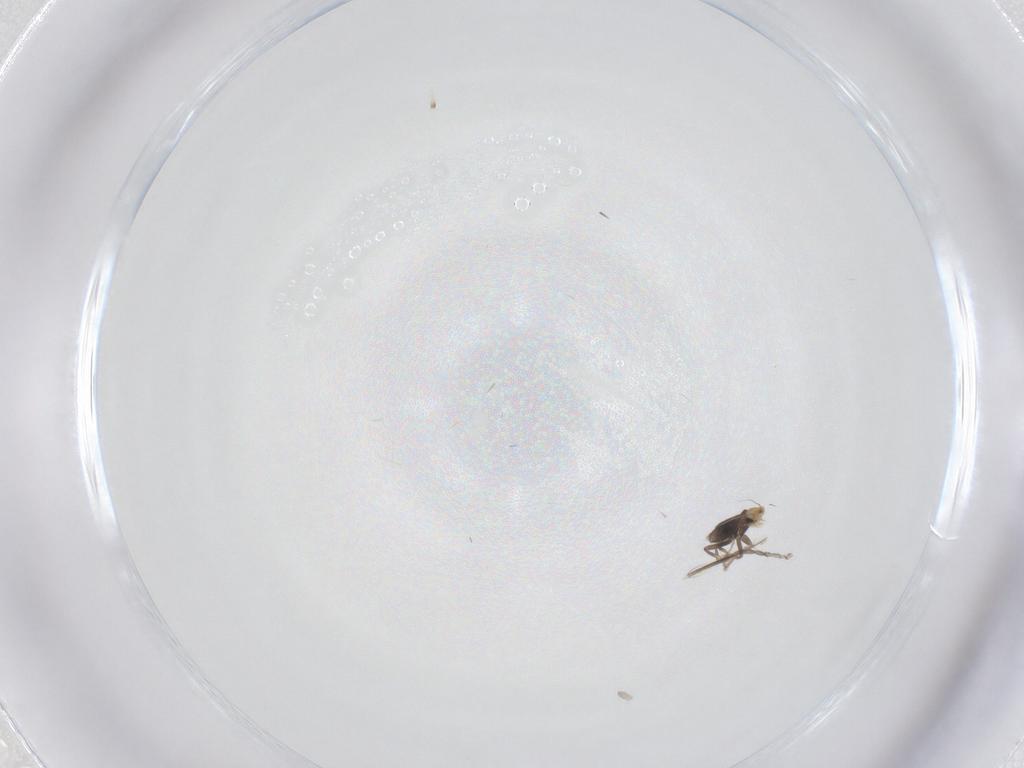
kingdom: Animalia
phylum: Arthropoda
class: Insecta
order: Diptera
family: Phoridae
